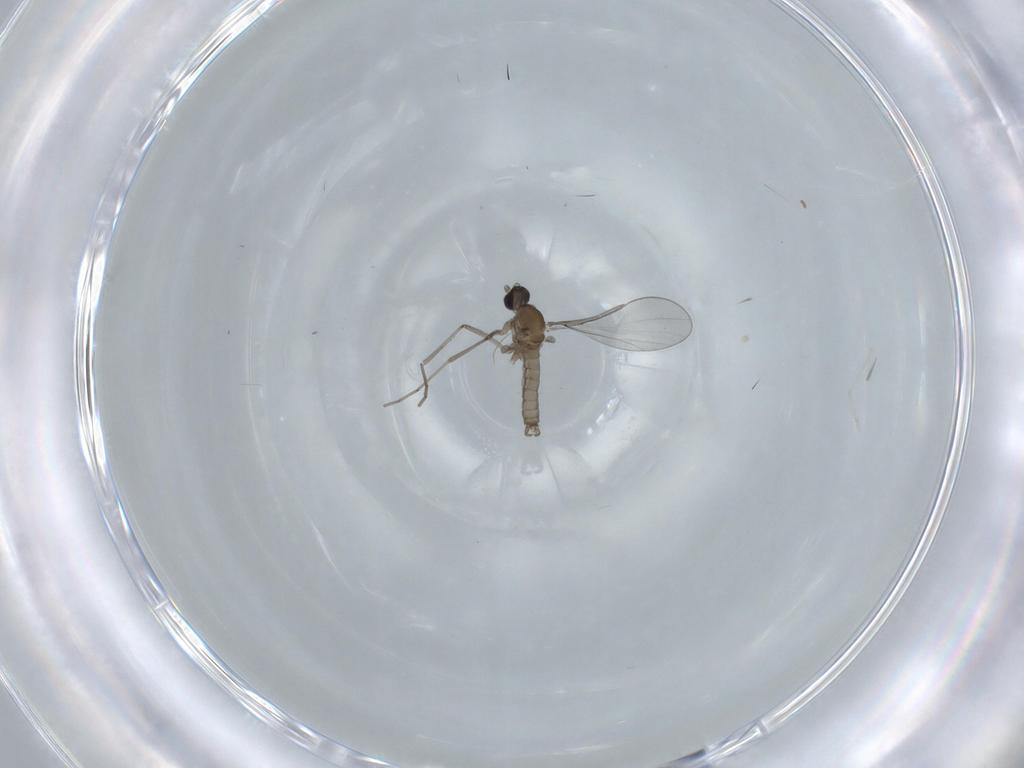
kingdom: Animalia
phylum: Arthropoda
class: Insecta
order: Diptera
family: Cecidomyiidae
